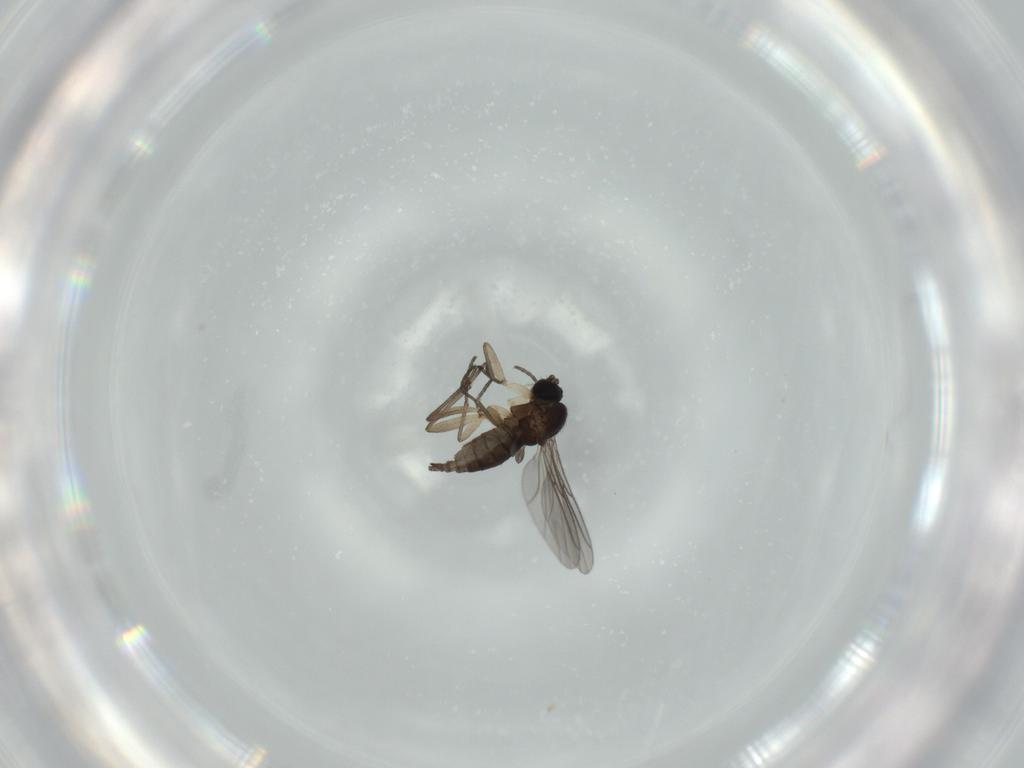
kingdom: Animalia
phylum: Arthropoda
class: Insecta
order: Diptera
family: Sciaridae
